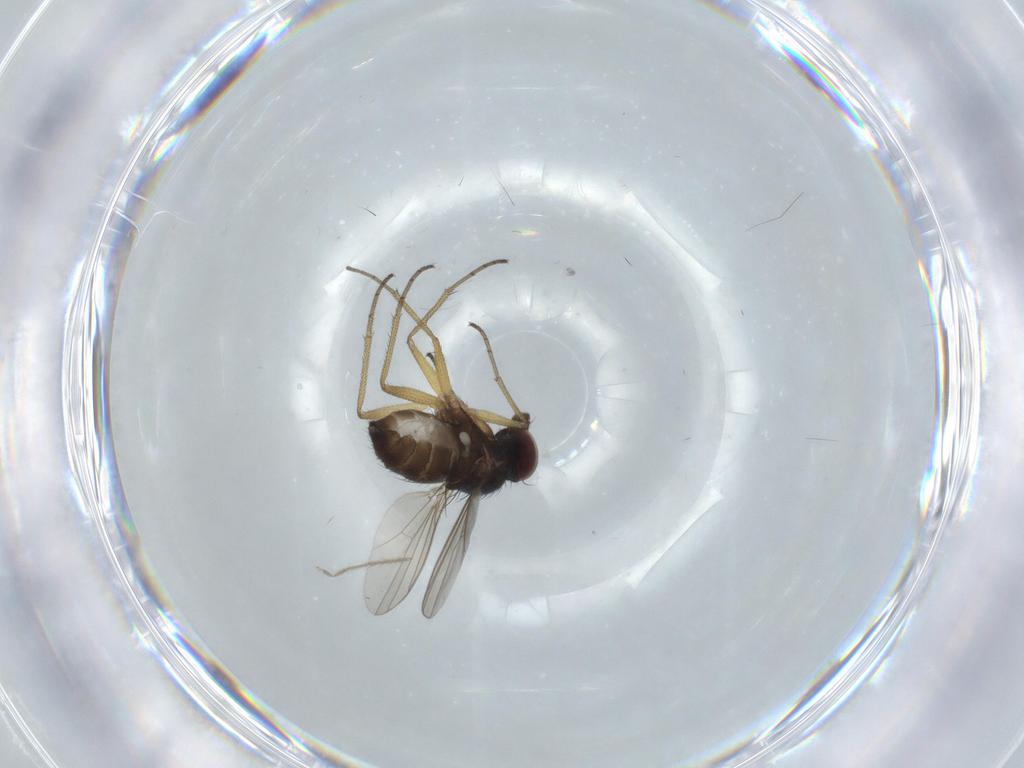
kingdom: Animalia
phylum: Arthropoda
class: Insecta
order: Diptera
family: Dolichopodidae
